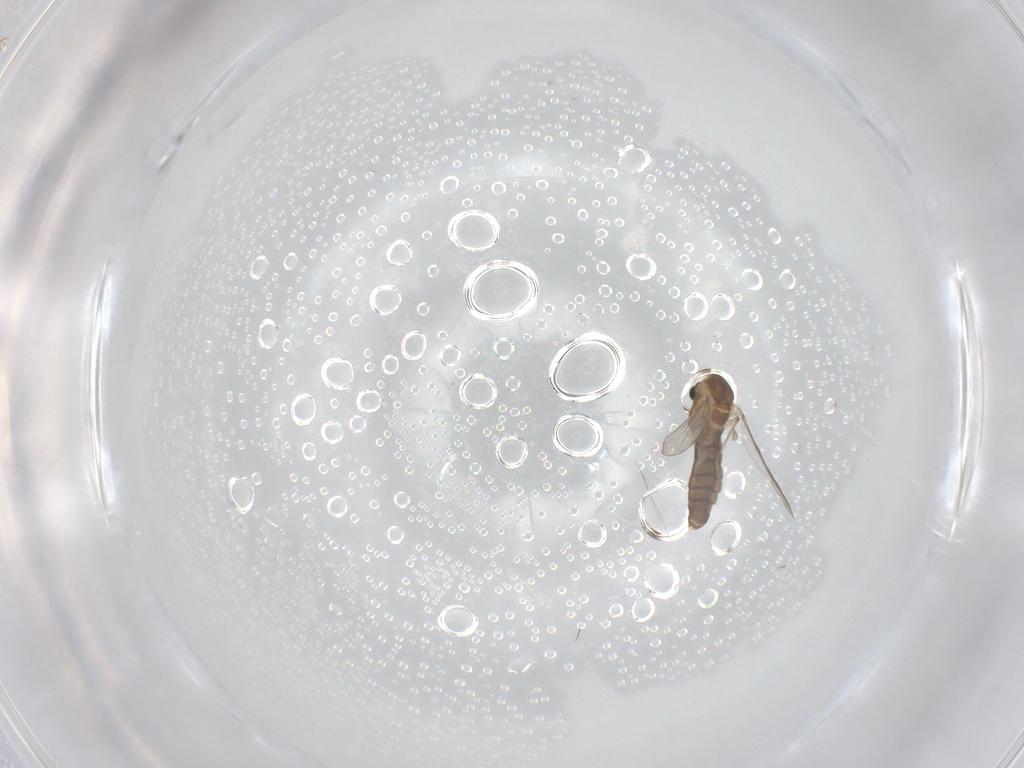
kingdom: Animalia
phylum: Arthropoda
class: Insecta
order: Diptera
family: Chironomidae
